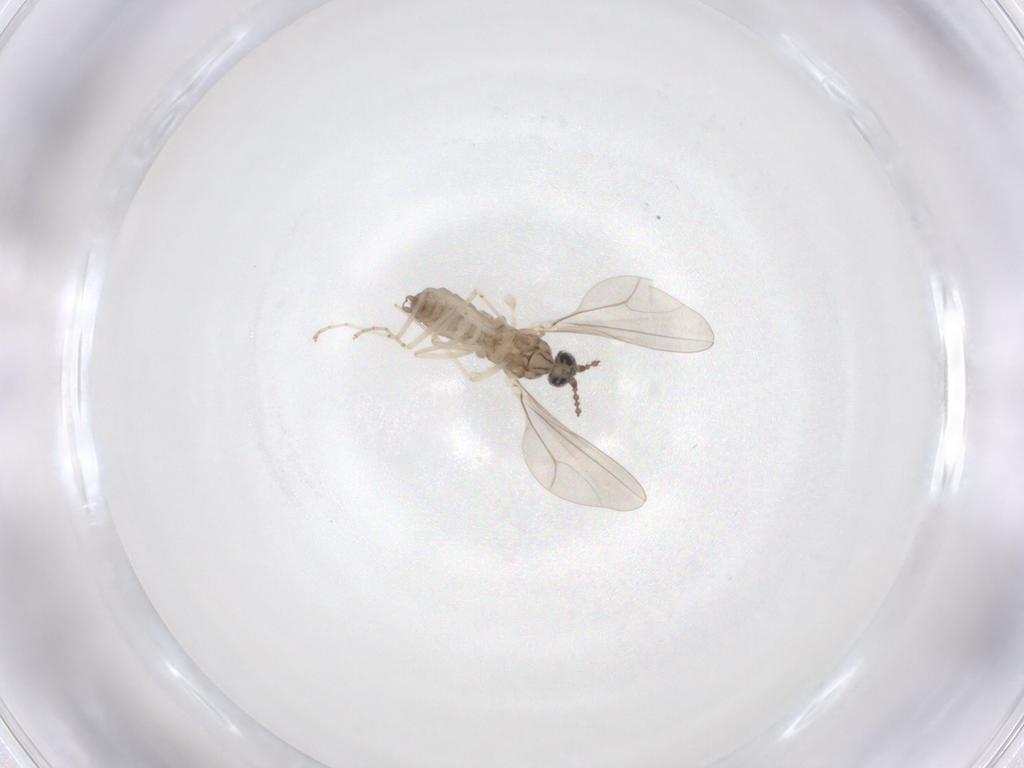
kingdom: Animalia
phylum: Arthropoda
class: Insecta
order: Diptera
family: Cecidomyiidae
